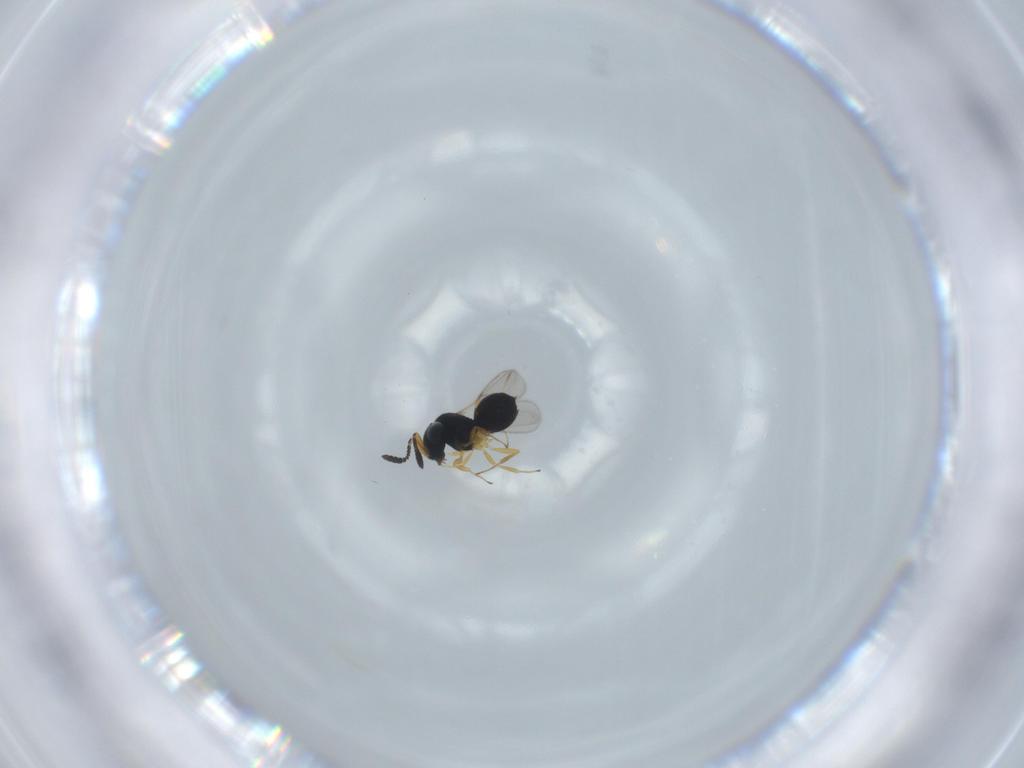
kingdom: Animalia
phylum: Arthropoda
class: Insecta
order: Hymenoptera
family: Scelionidae
